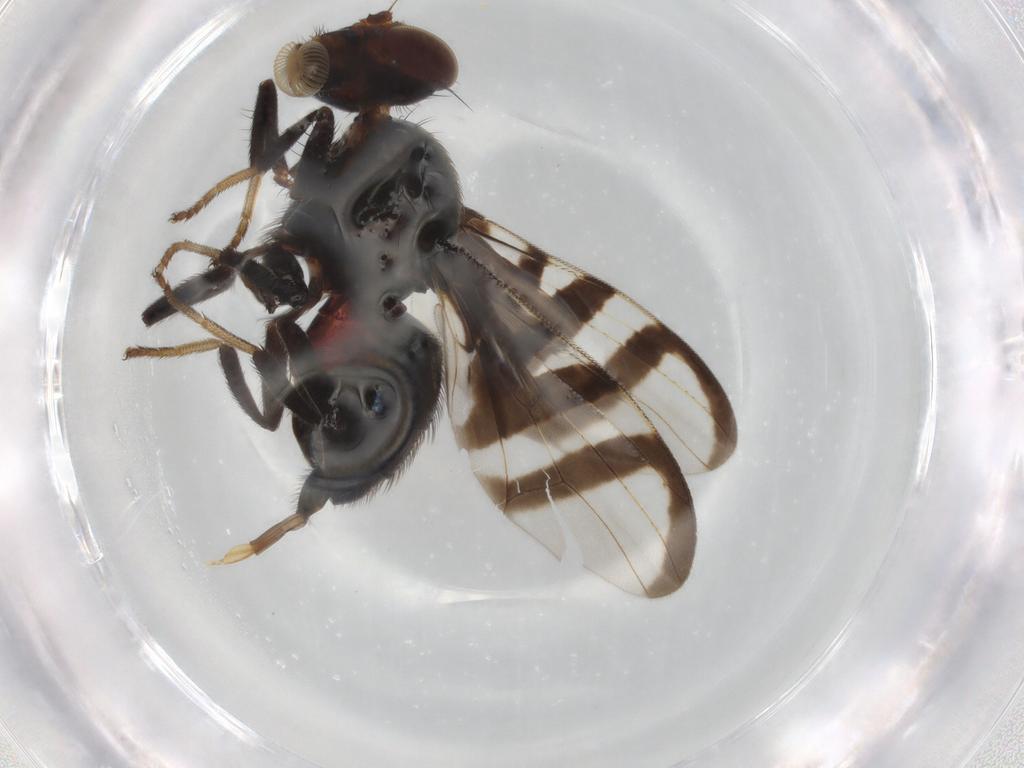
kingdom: Animalia
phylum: Arthropoda
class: Insecta
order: Diptera
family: Platystomatidae
